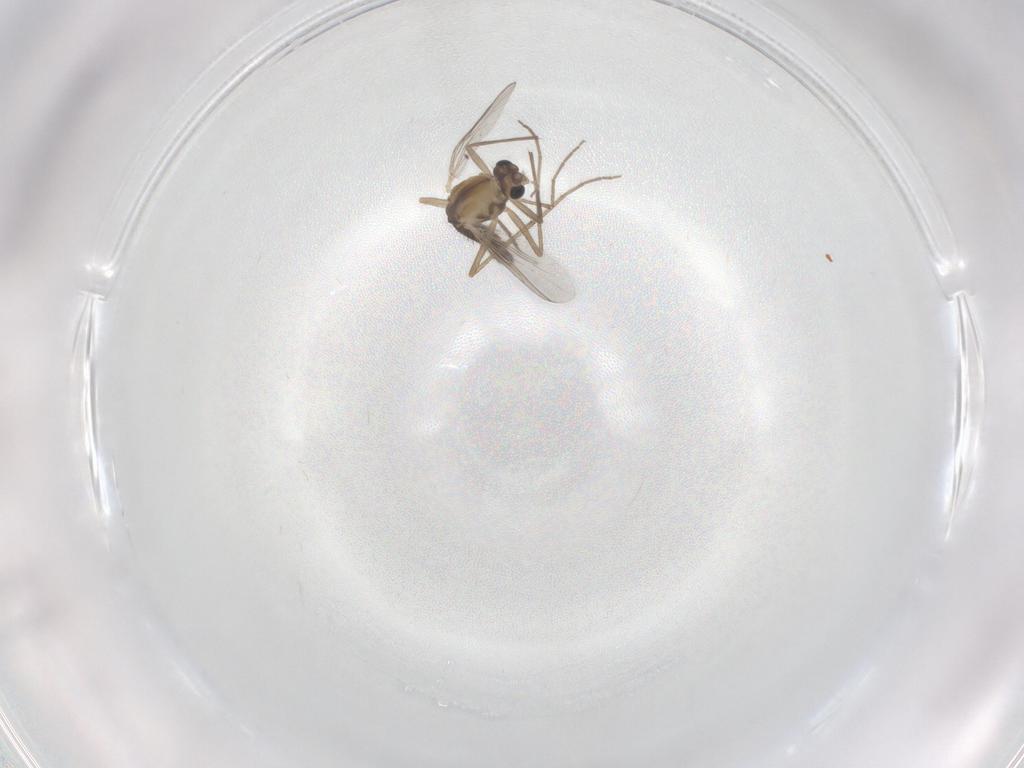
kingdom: Animalia
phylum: Arthropoda
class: Insecta
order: Diptera
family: Chironomidae
